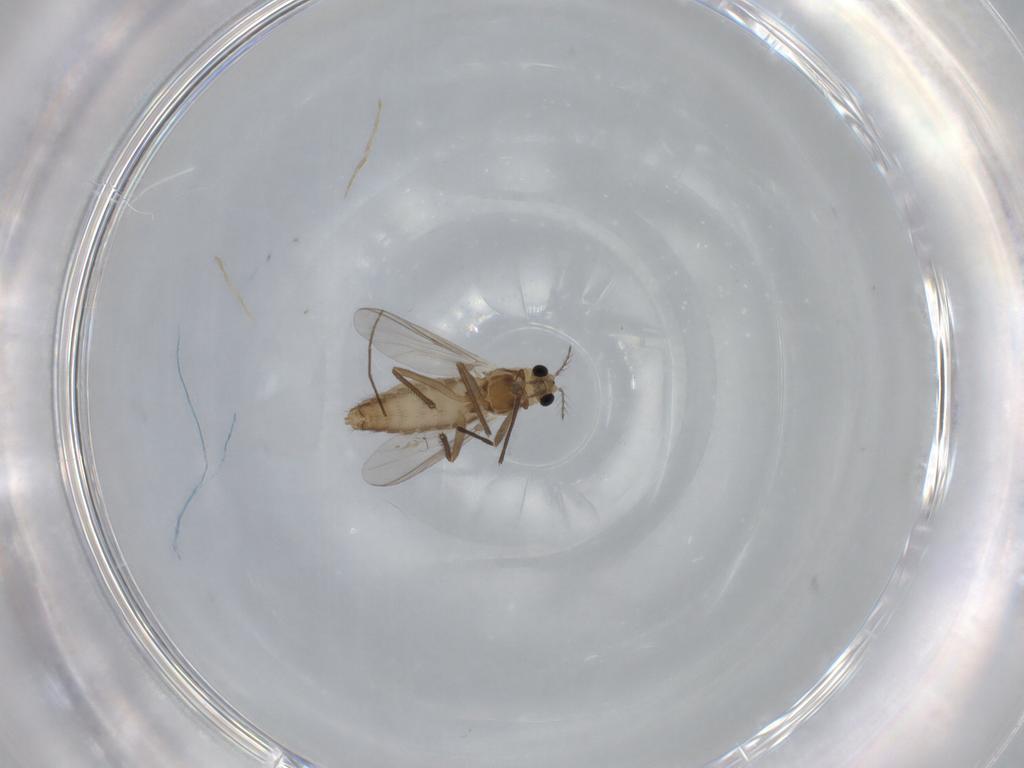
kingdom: Animalia
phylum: Arthropoda
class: Insecta
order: Diptera
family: Chironomidae
